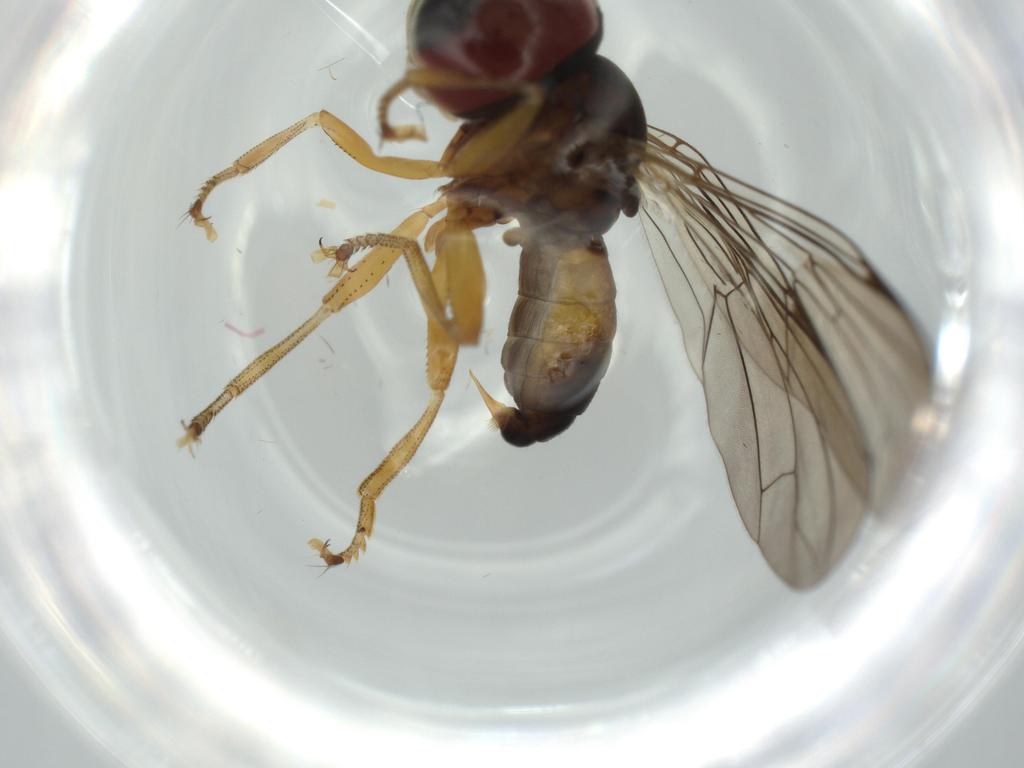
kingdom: Animalia
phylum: Arthropoda
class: Insecta
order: Diptera
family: Pipunculidae
